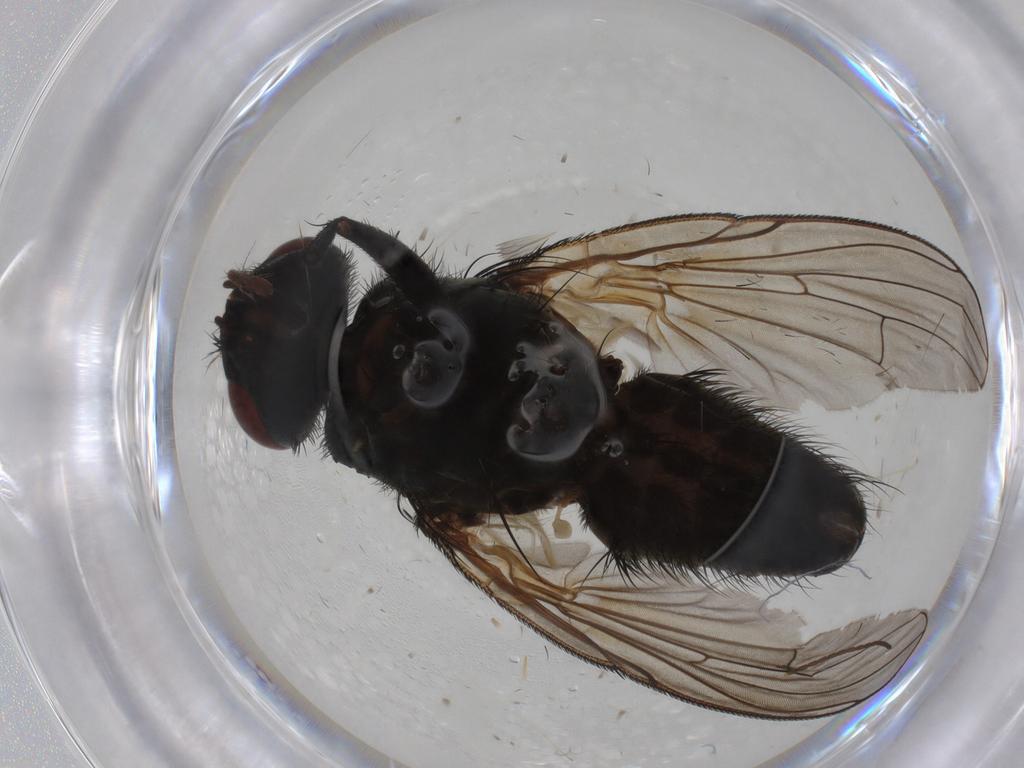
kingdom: Animalia
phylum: Arthropoda
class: Insecta
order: Diptera
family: Muscidae
